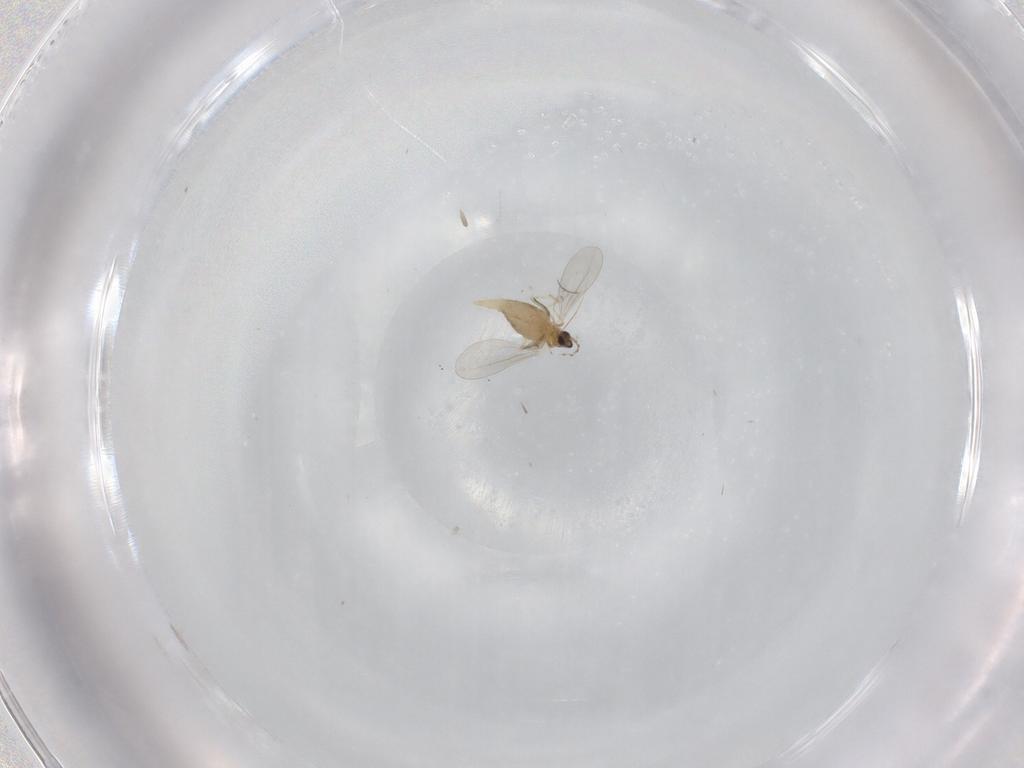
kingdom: Animalia
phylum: Arthropoda
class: Insecta
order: Diptera
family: Cecidomyiidae
